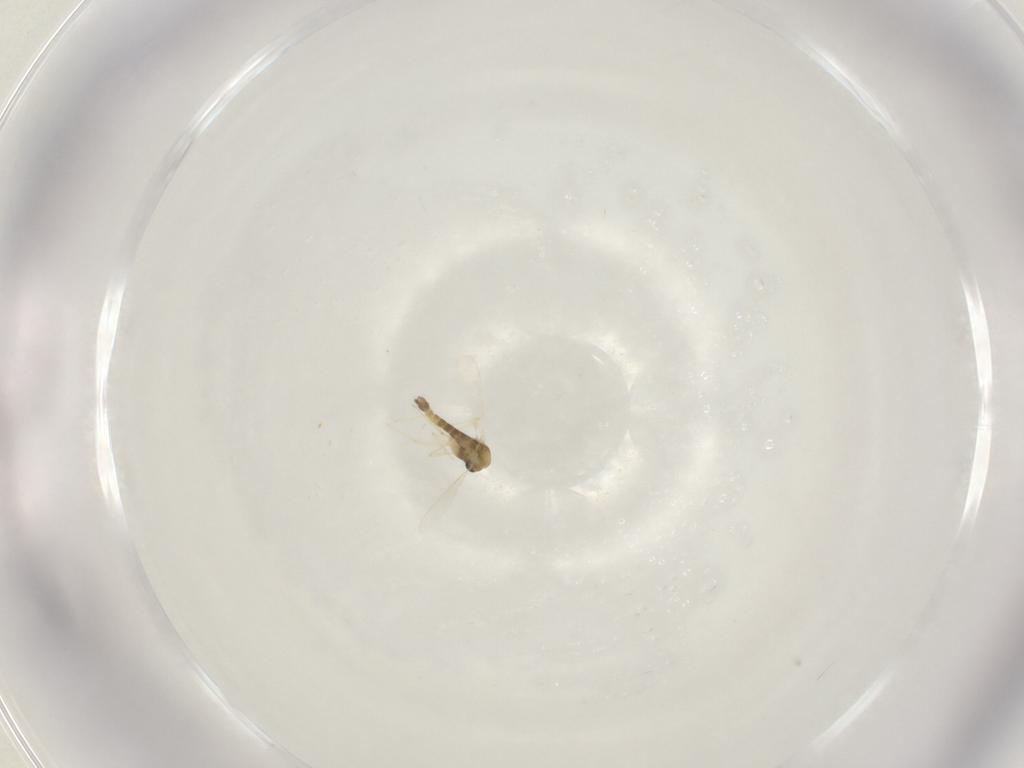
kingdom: Animalia
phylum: Arthropoda
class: Insecta
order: Diptera
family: Chironomidae
